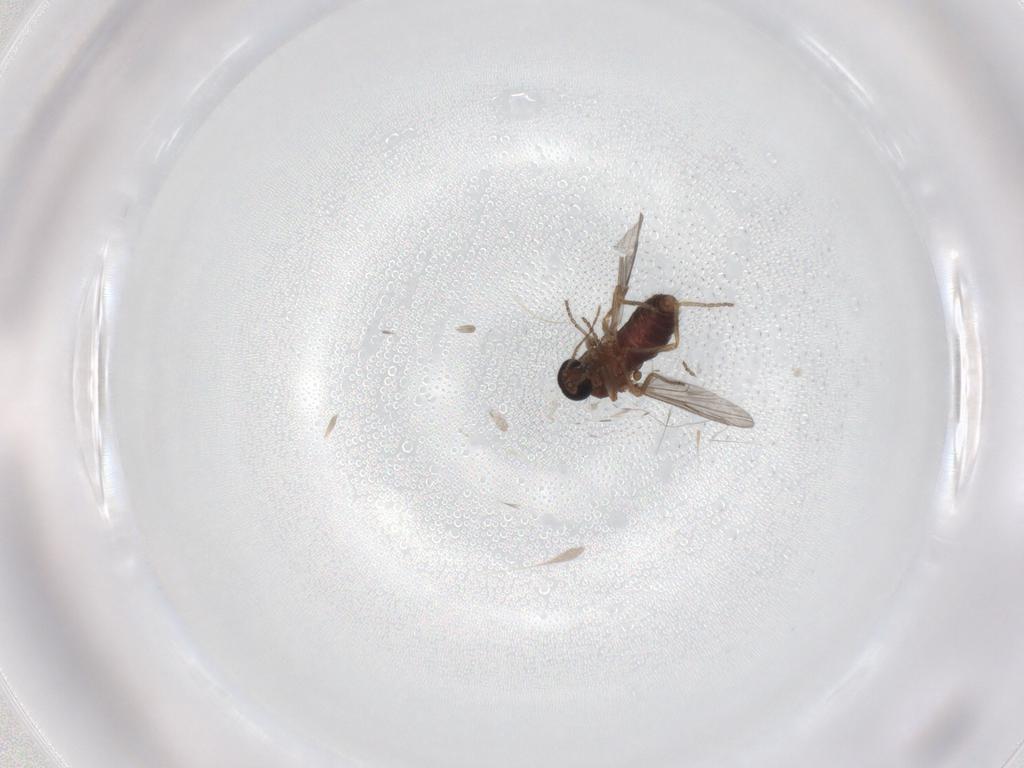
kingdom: Animalia
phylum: Arthropoda
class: Insecta
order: Diptera
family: Ceratopogonidae
